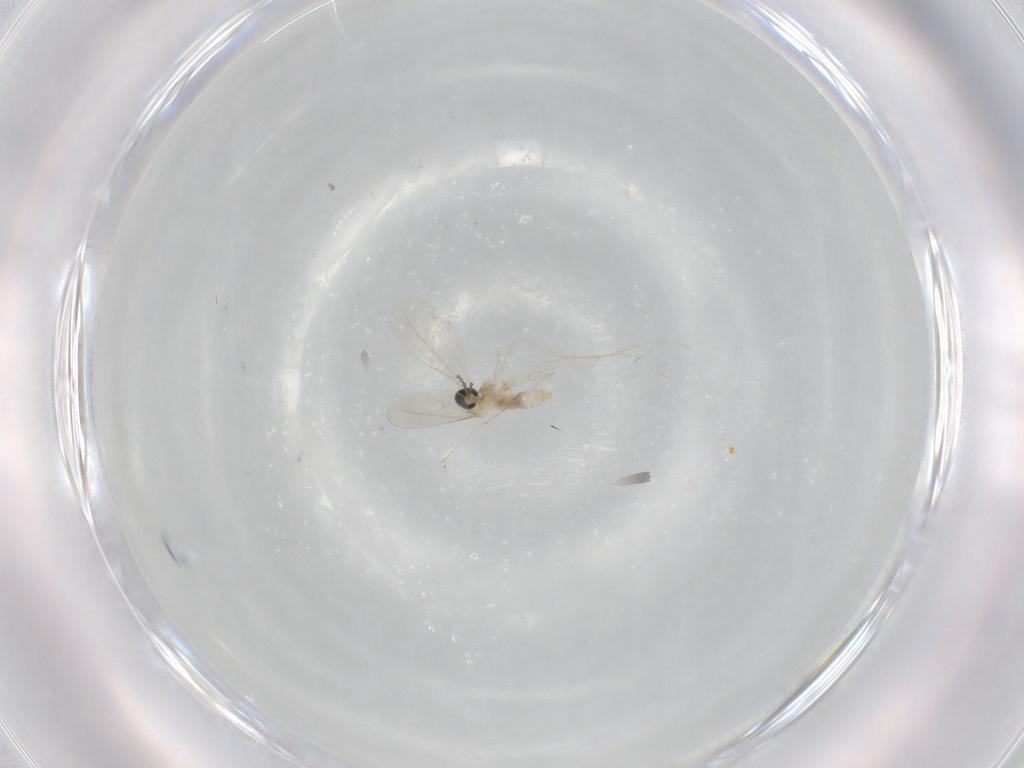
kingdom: Animalia
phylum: Arthropoda
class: Insecta
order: Diptera
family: Cecidomyiidae
